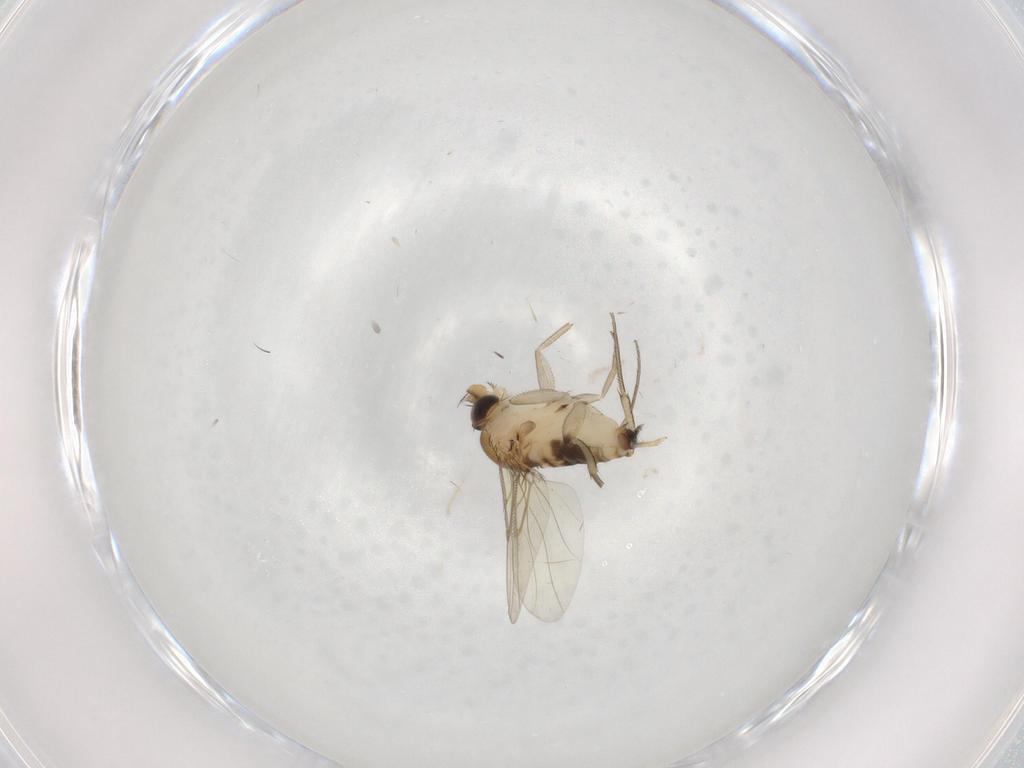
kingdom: Animalia
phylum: Arthropoda
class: Insecta
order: Diptera
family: Phoridae
